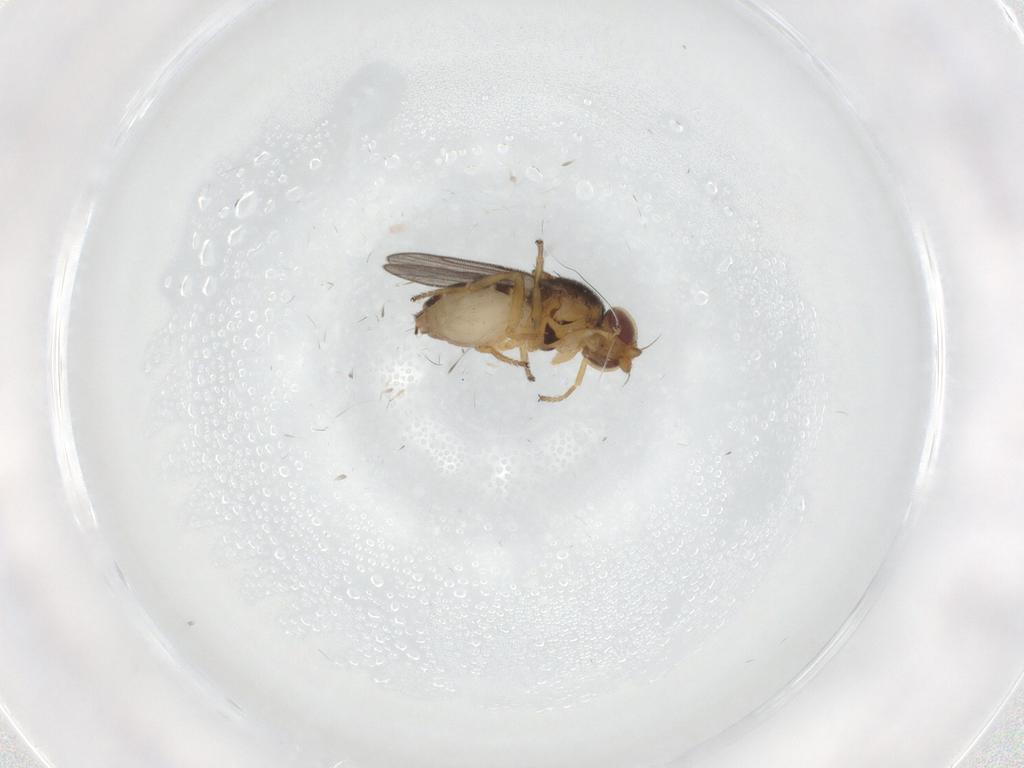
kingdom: Animalia
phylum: Arthropoda
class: Insecta
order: Diptera
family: Chloropidae
